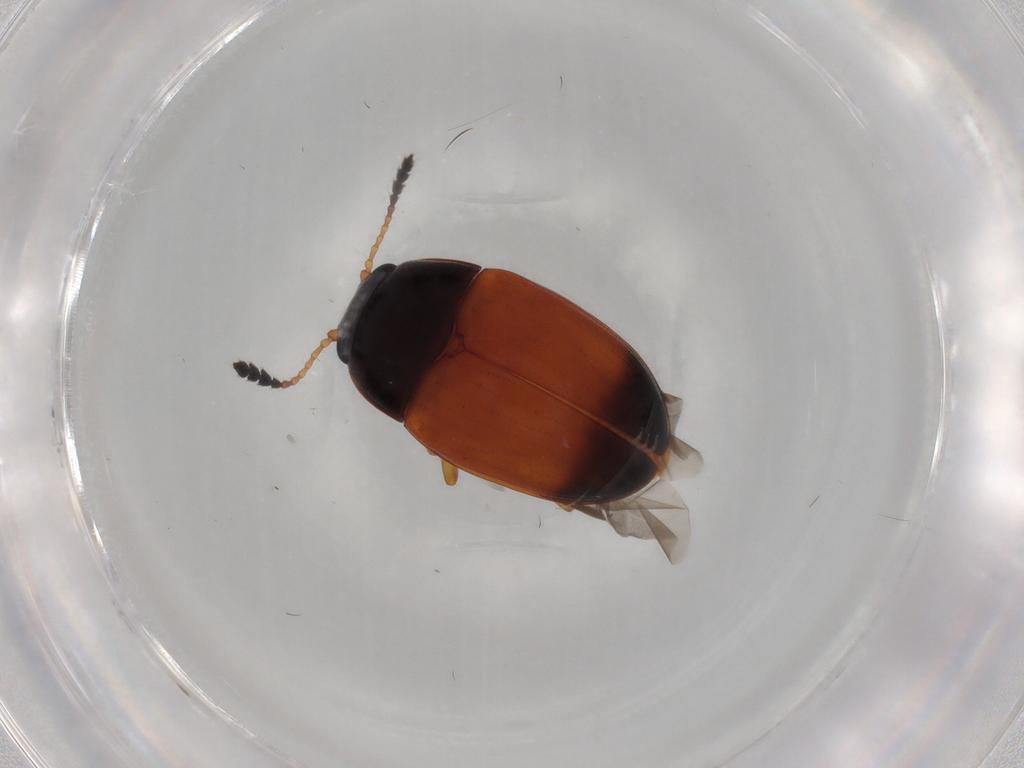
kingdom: Animalia
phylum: Arthropoda
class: Insecta
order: Coleoptera
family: Erotylidae
